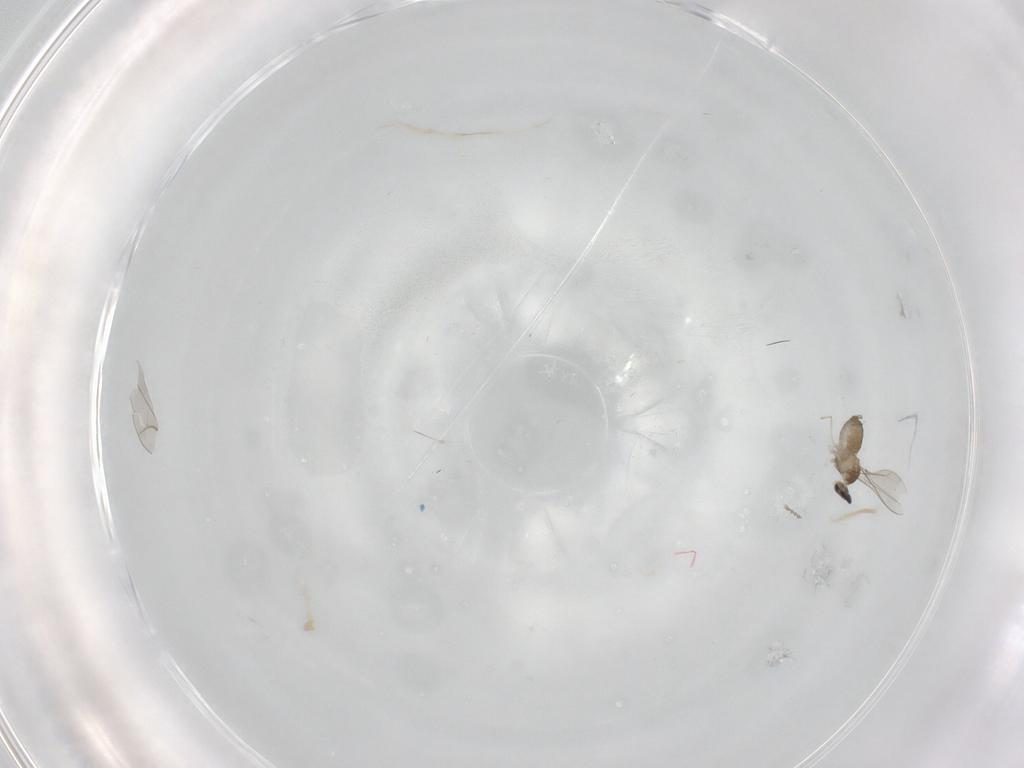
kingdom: Animalia
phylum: Arthropoda
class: Insecta
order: Diptera
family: Cecidomyiidae
